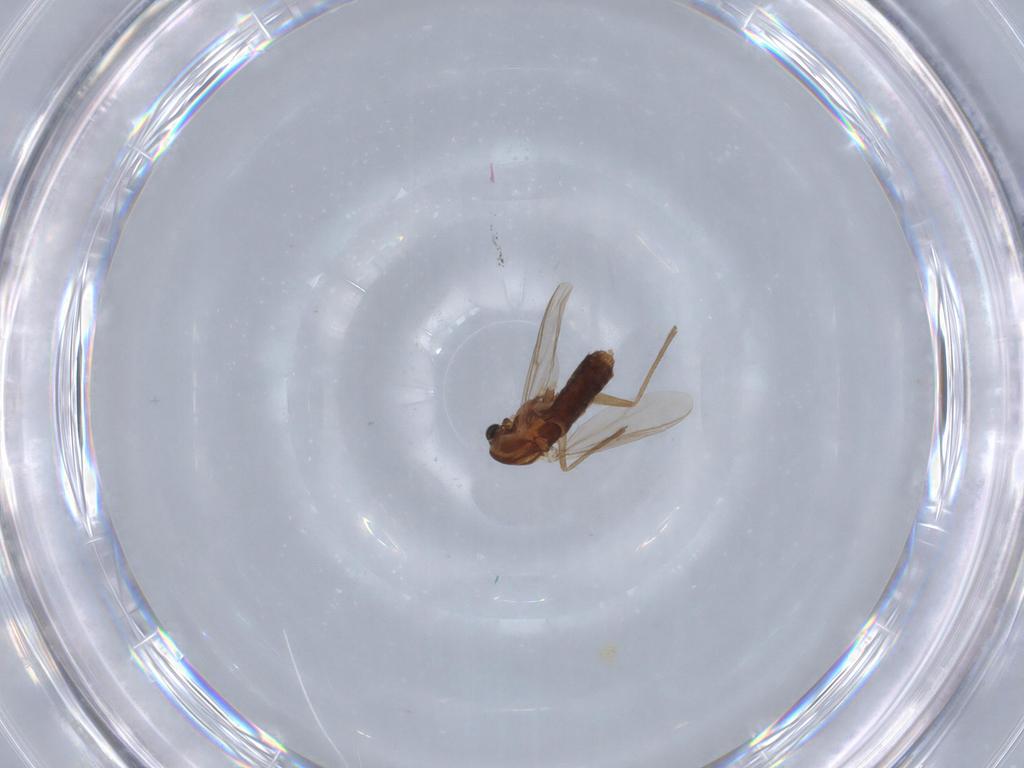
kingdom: Animalia
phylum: Arthropoda
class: Insecta
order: Diptera
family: Chironomidae
